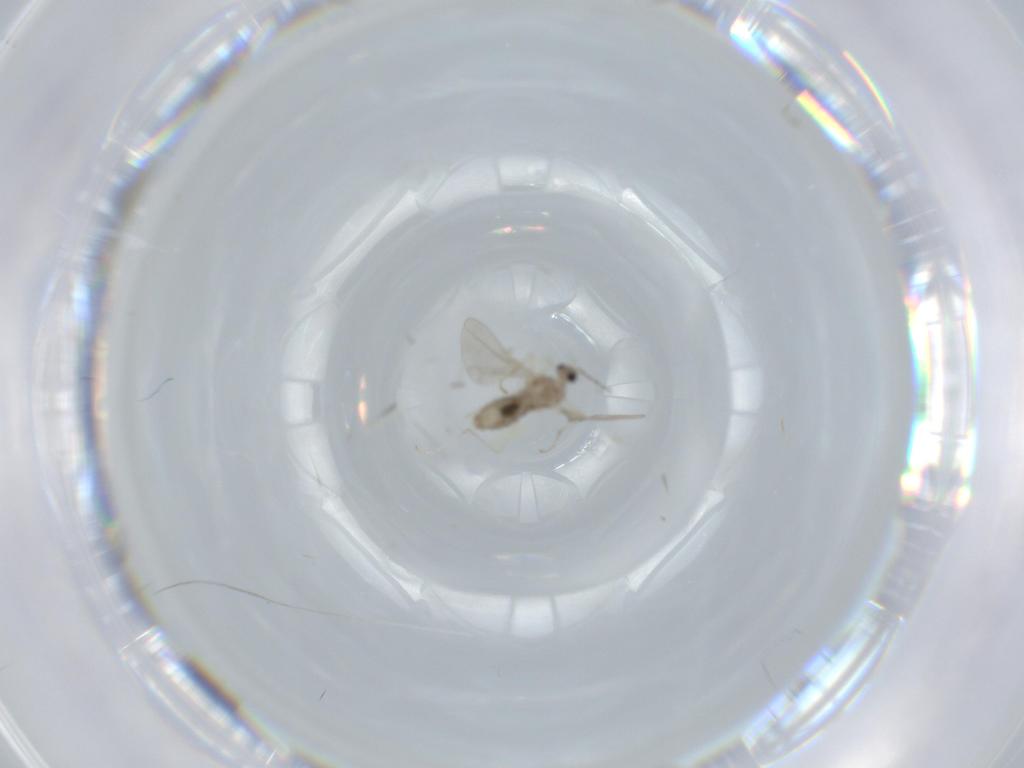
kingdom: Animalia
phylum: Arthropoda
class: Insecta
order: Diptera
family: Cecidomyiidae
